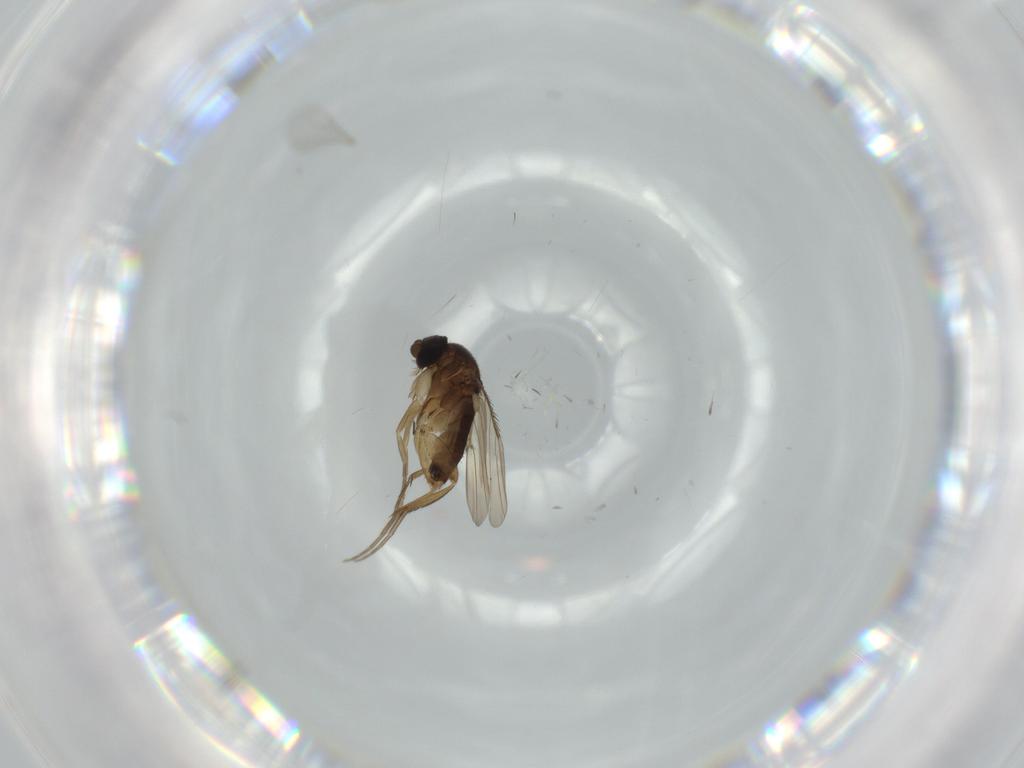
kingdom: Animalia
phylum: Arthropoda
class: Insecta
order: Diptera
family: Phoridae
